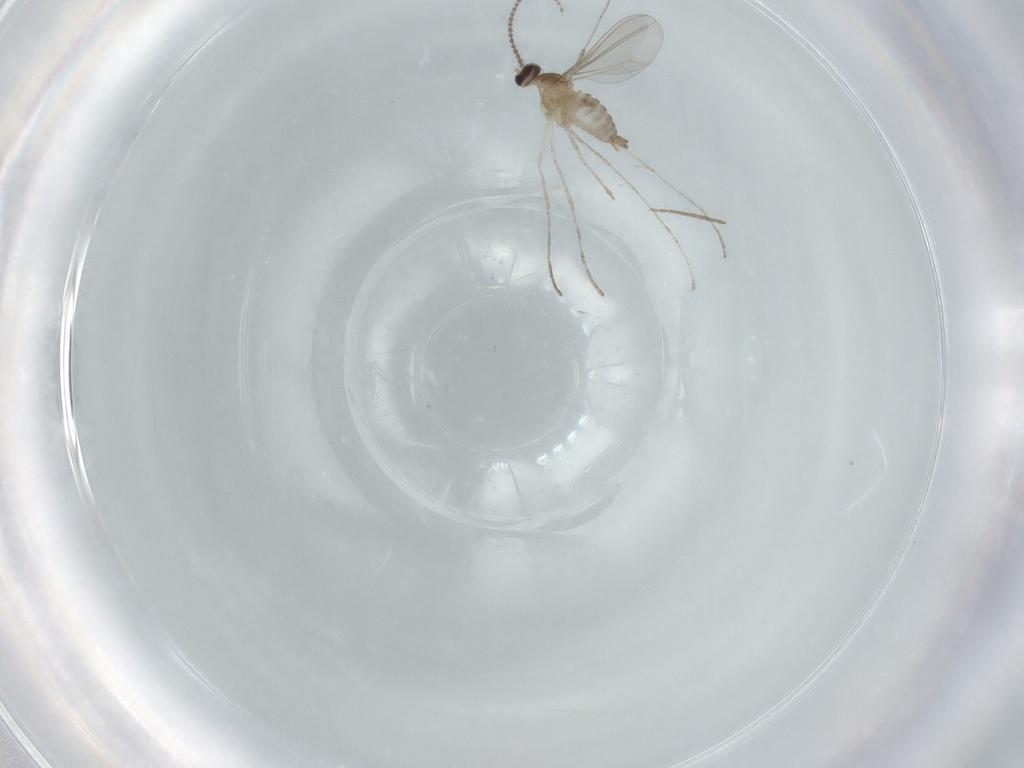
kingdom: Animalia
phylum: Arthropoda
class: Insecta
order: Diptera
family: Cecidomyiidae
